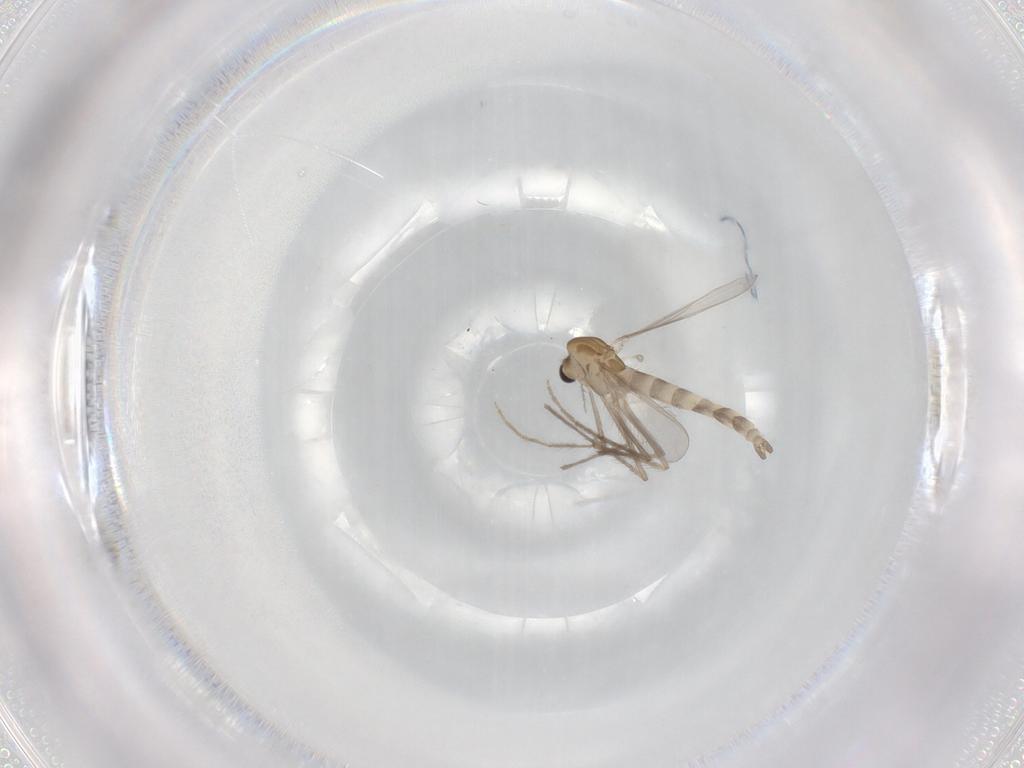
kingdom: Animalia
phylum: Arthropoda
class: Insecta
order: Diptera
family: Chironomidae
